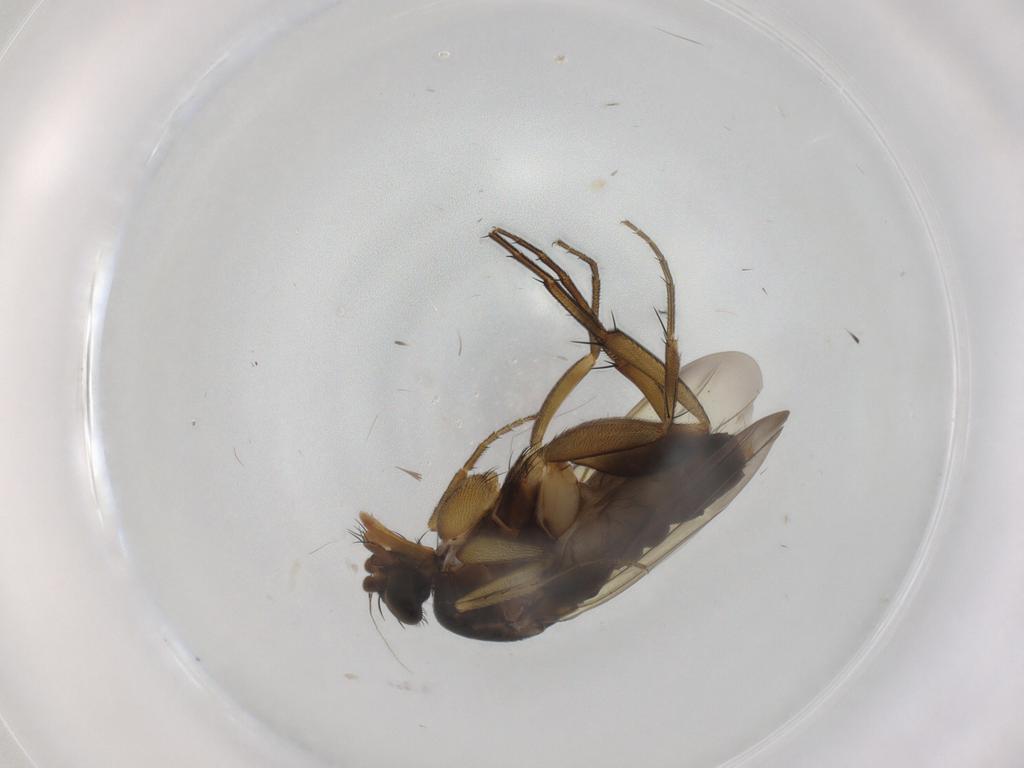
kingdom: Animalia
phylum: Arthropoda
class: Insecta
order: Diptera
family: Phoridae
